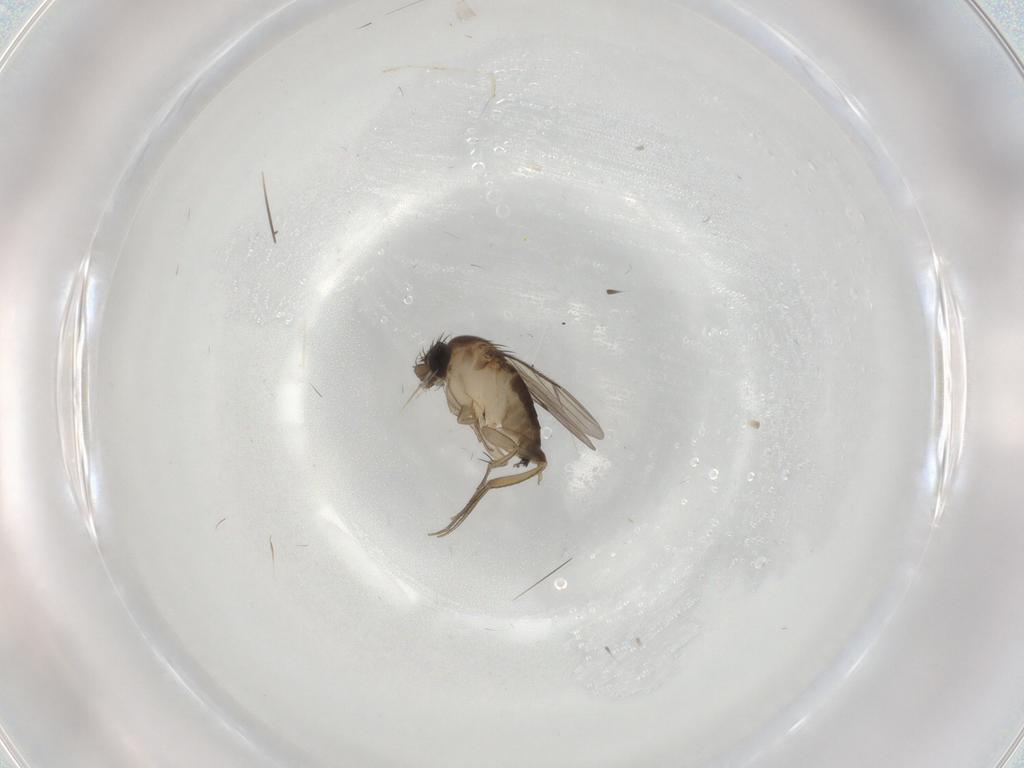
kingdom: Animalia
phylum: Arthropoda
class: Insecta
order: Diptera
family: Phoridae
